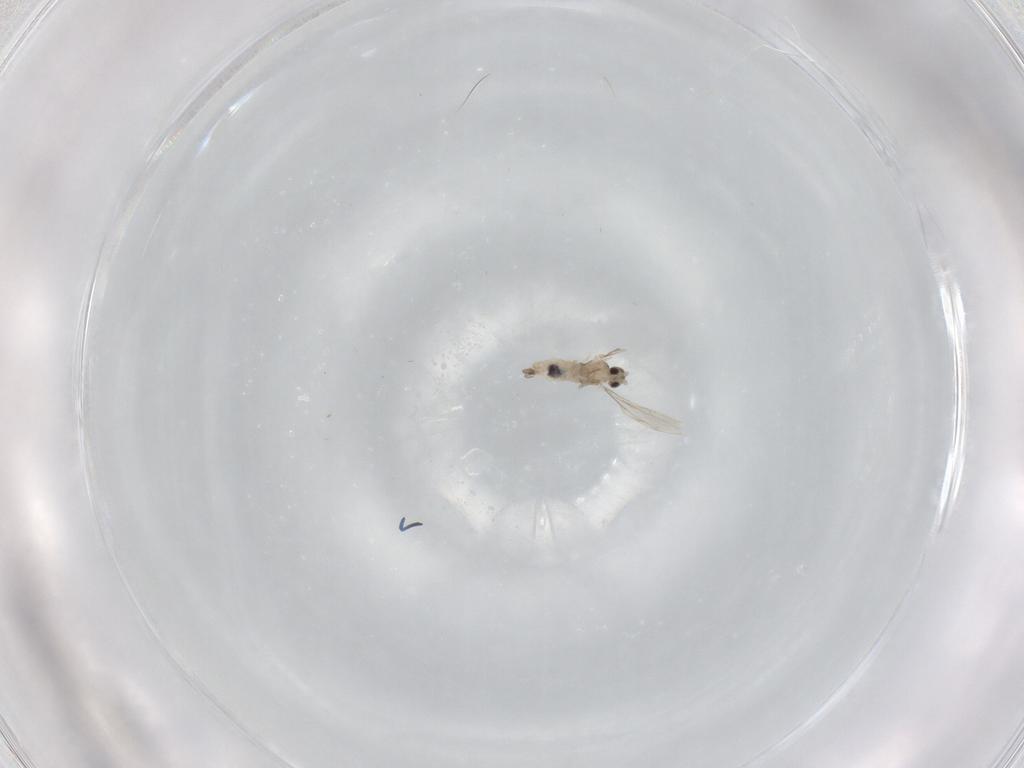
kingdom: Animalia
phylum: Arthropoda
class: Insecta
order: Diptera
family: Cecidomyiidae
